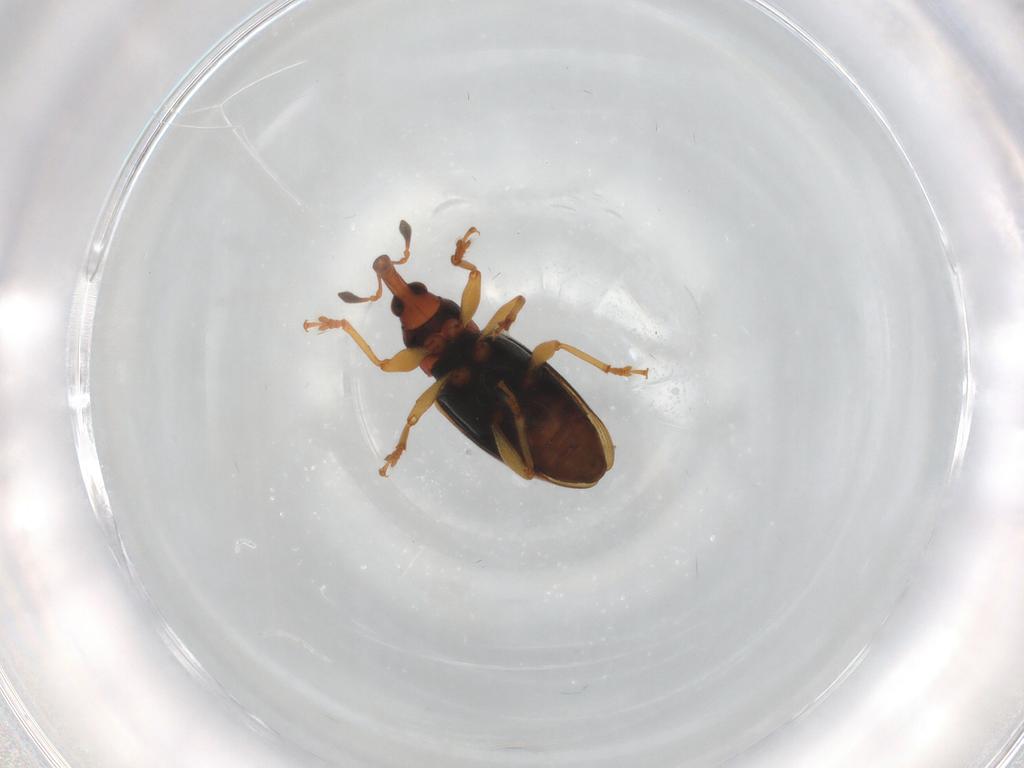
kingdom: Animalia
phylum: Arthropoda
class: Insecta
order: Coleoptera
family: Curculionidae
